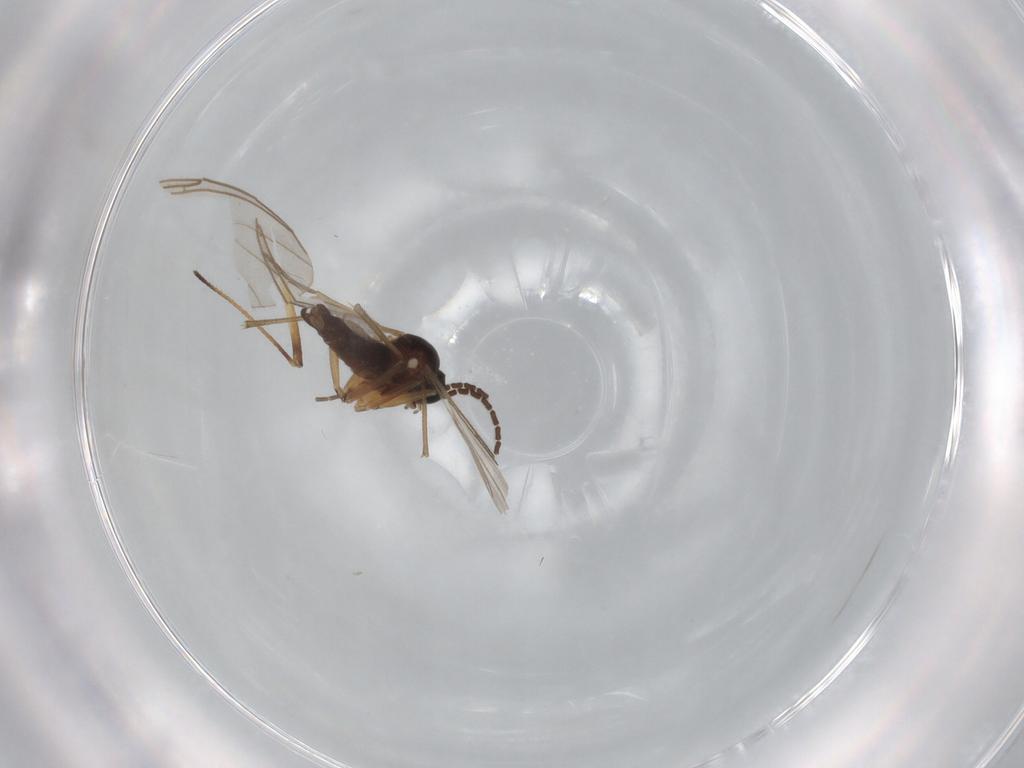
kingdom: Animalia
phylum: Arthropoda
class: Insecta
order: Diptera
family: Sciaridae
